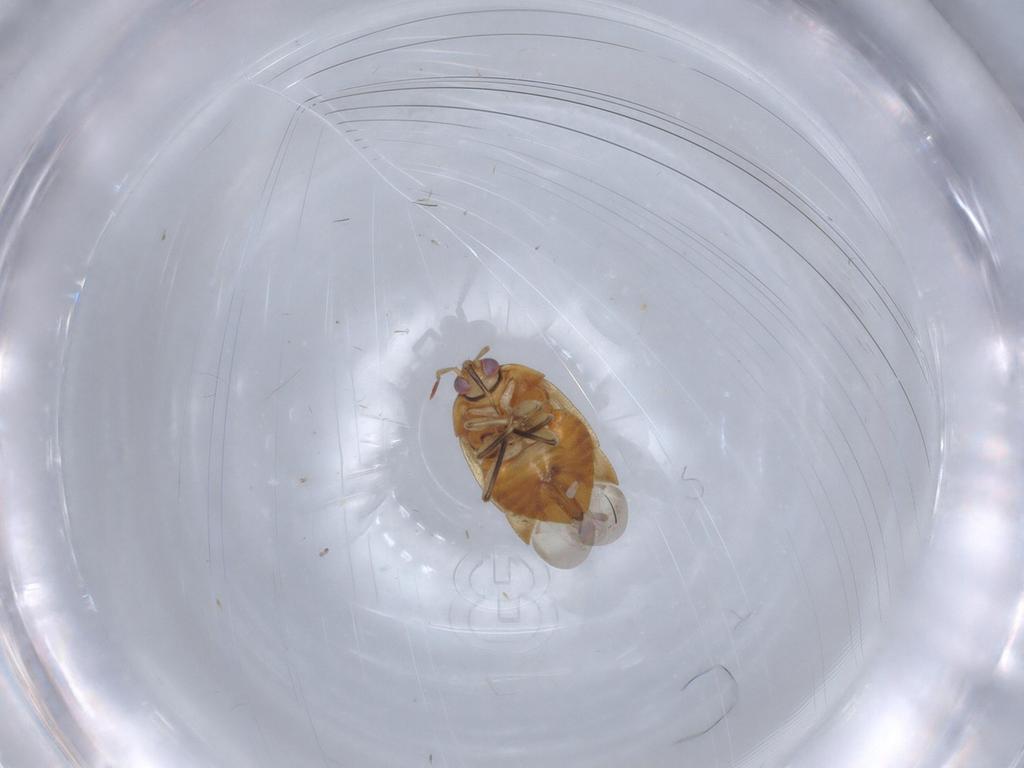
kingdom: Animalia
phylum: Arthropoda
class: Insecta
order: Hemiptera
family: Anthocoridae
